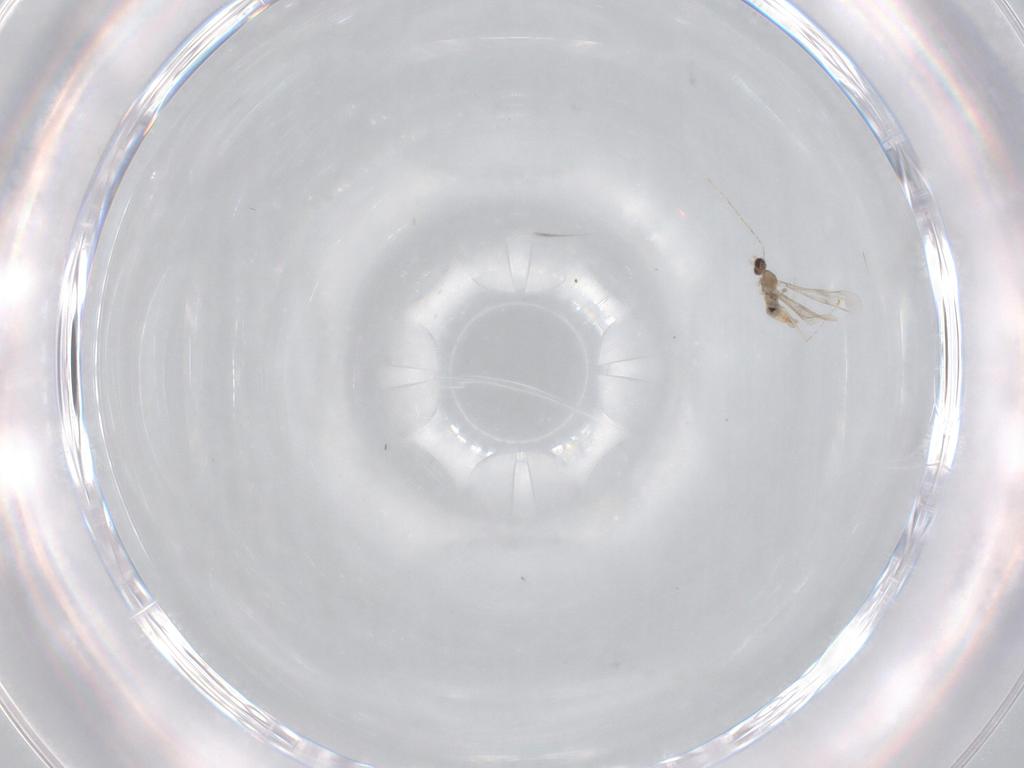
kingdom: Animalia
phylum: Arthropoda
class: Insecta
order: Diptera
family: Cecidomyiidae
